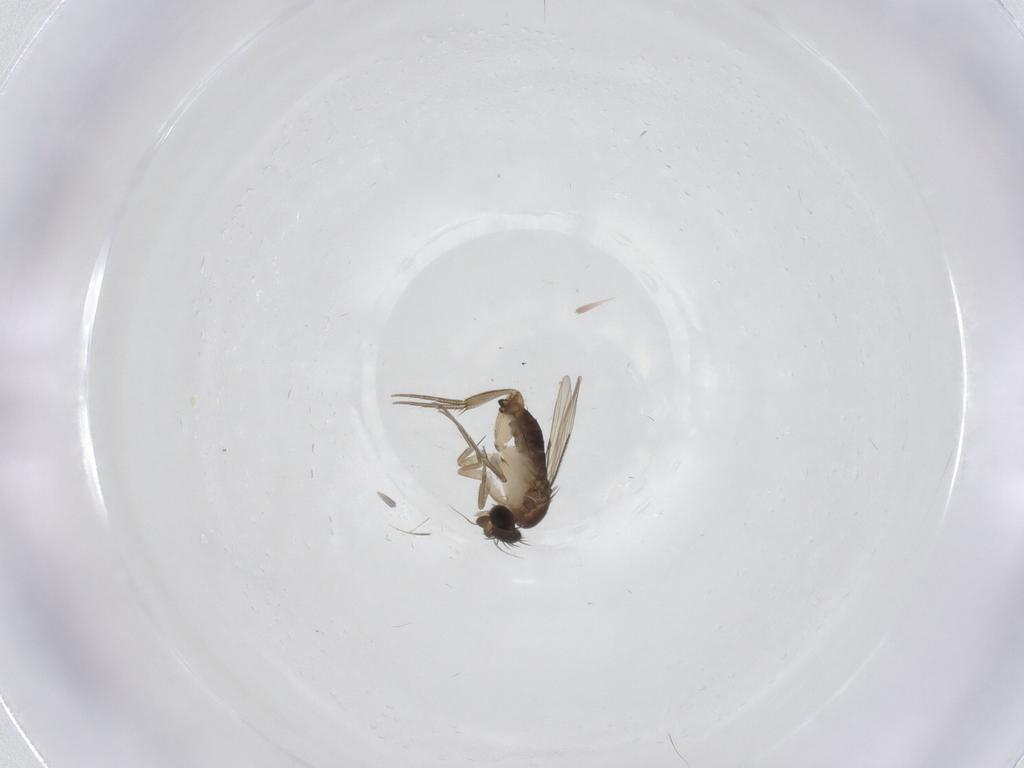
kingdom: Animalia
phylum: Arthropoda
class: Insecta
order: Diptera
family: Phoridae
